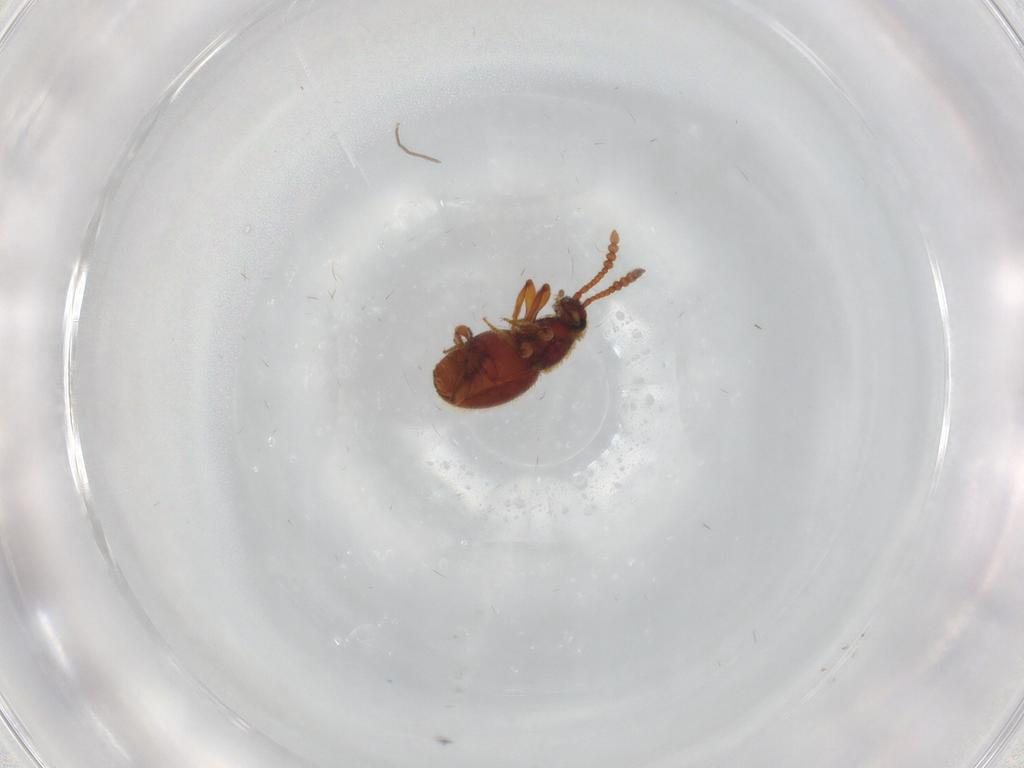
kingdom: Animalia
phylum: Arthropoda
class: Insecta
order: Coleoptera
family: Staphylinidae
